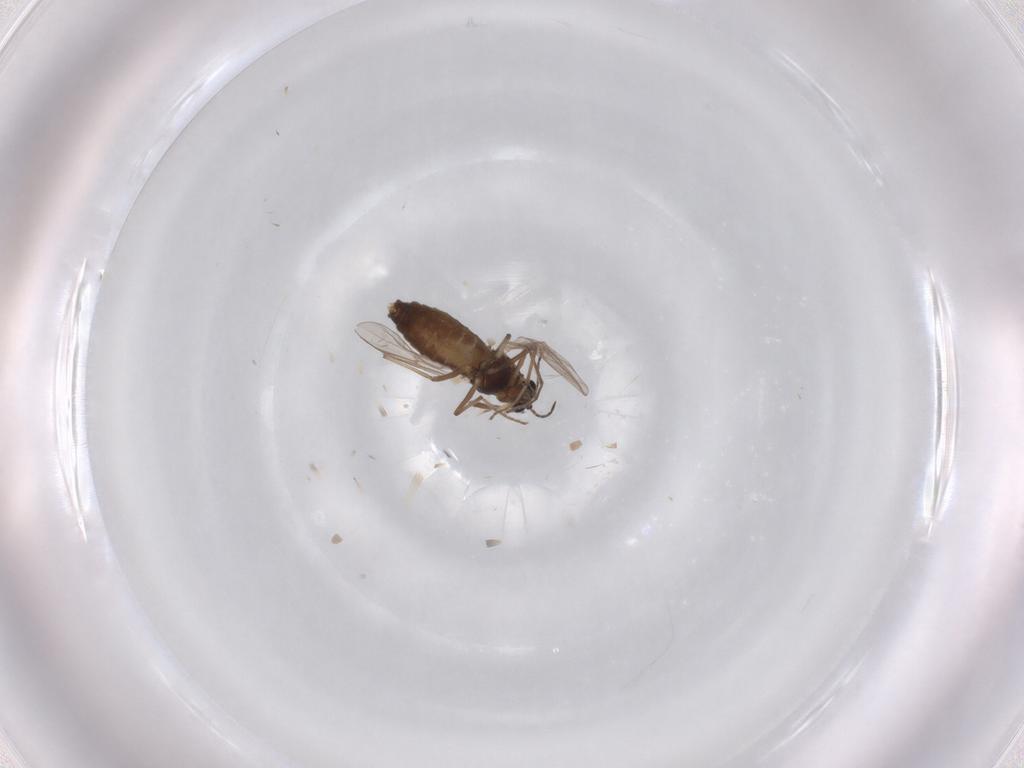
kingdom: Animalia
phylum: Arthropoda
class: Insecta
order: Diptera
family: Chironomidae
